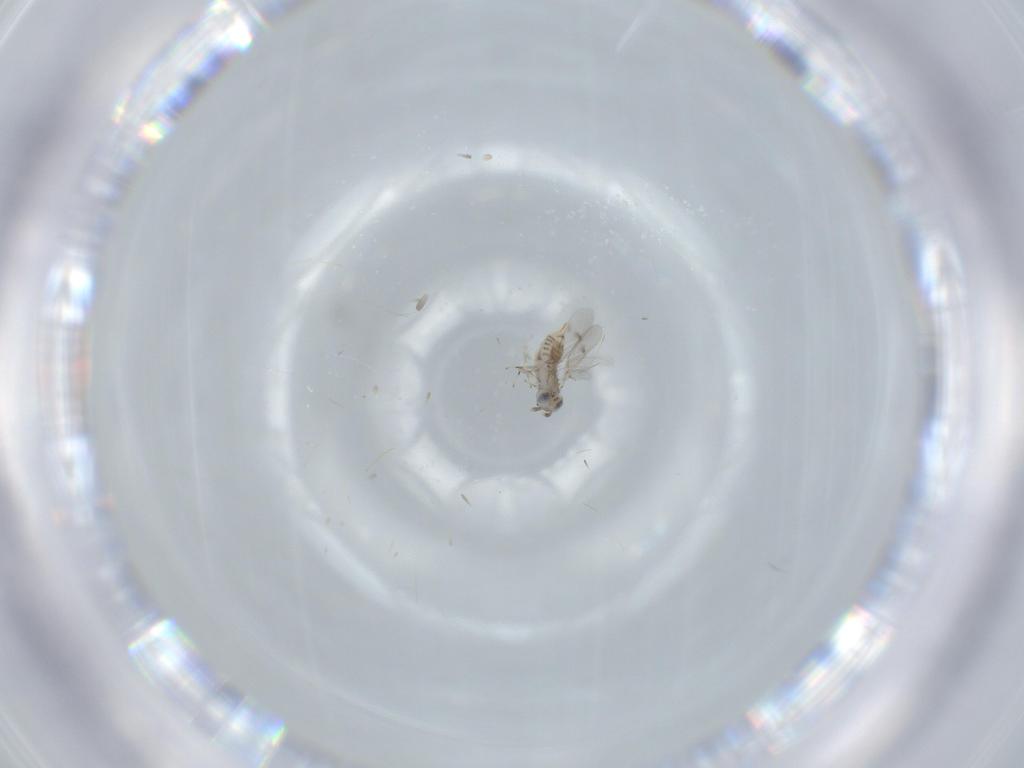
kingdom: Animalia
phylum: Arthropoda
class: Insecta
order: Hymenoptera
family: Aphelinidae
